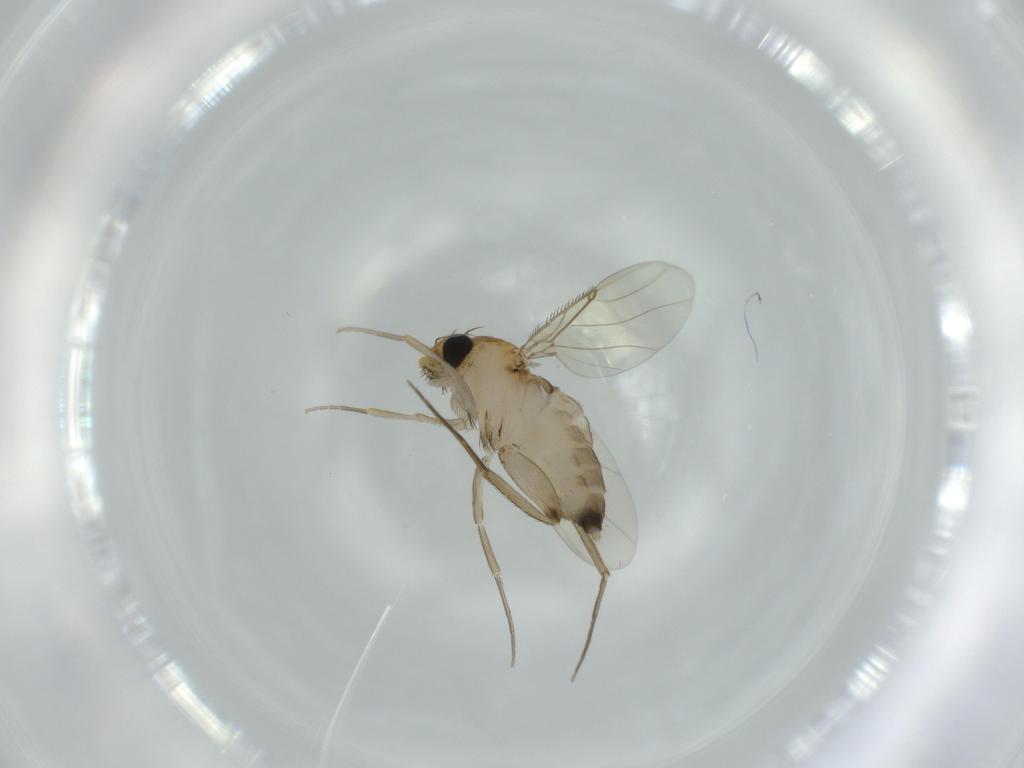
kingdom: Animalia
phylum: Arthropoda
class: Insecta
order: Diptera
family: Phoridae
